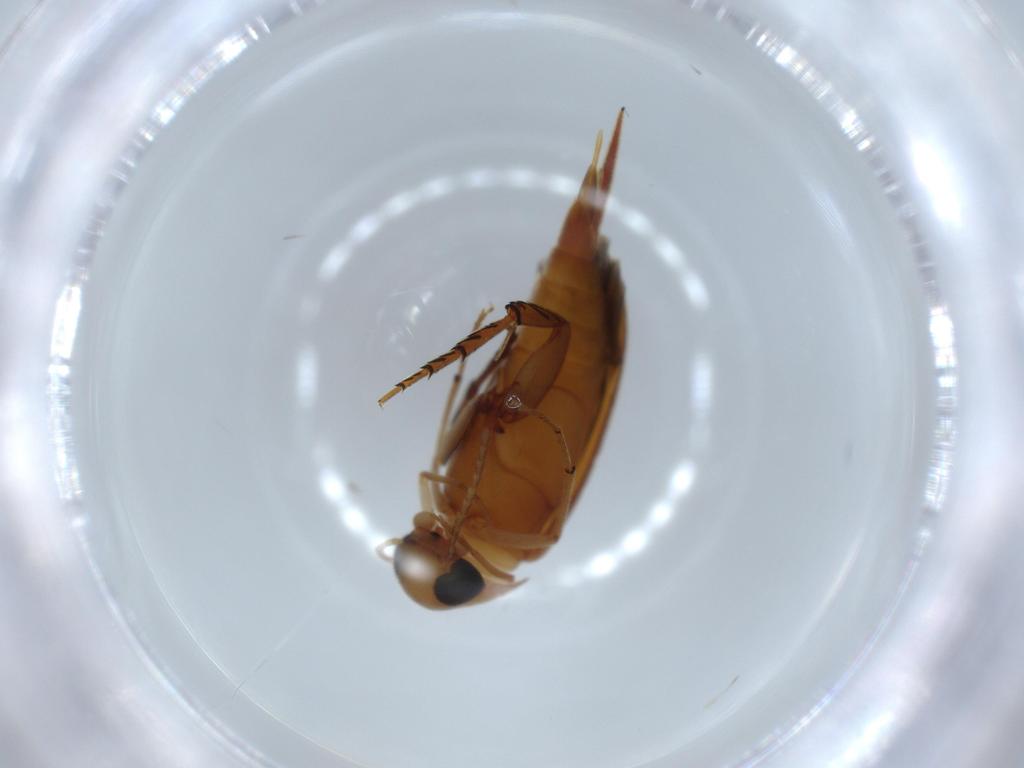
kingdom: Animalia
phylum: Arthropoda
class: Insecta
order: Coleoptera
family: Mordellidae
